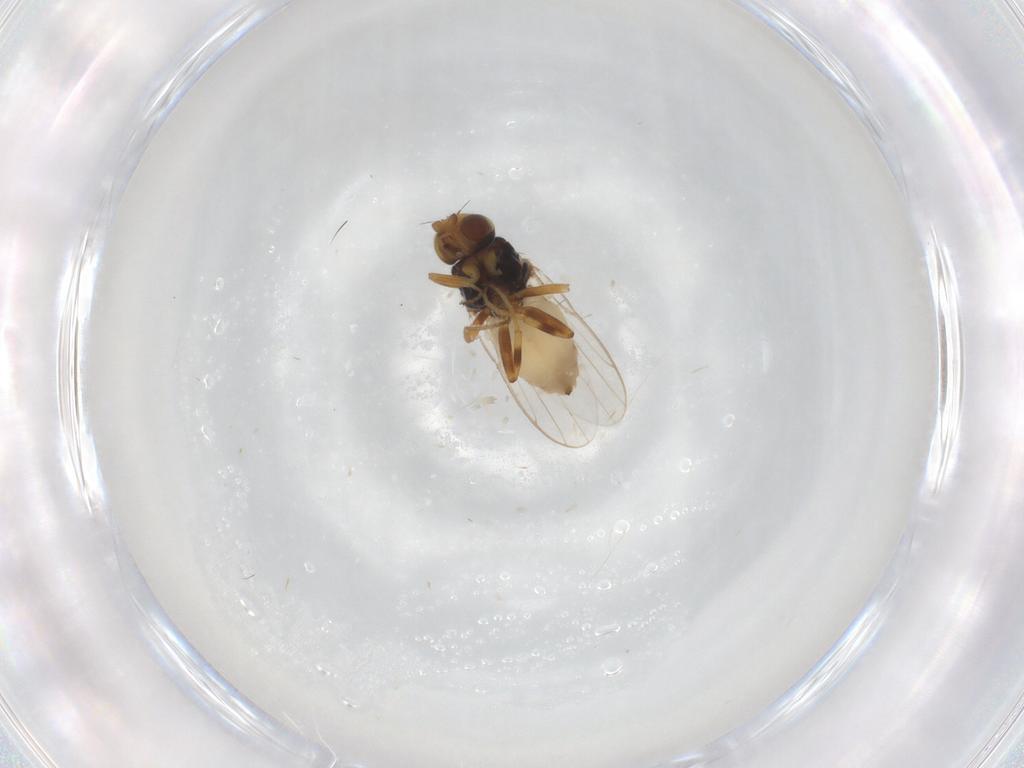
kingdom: Animalia
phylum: Arthropoda
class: Insecta
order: Diptera
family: Chloropidae
